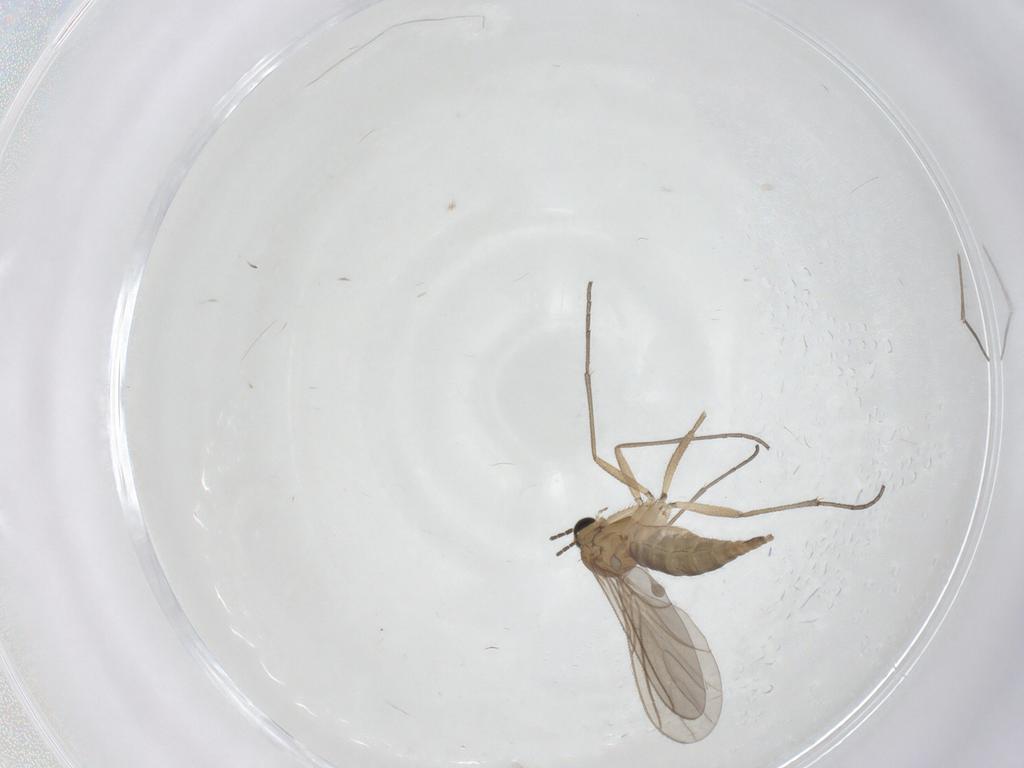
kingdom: Animalia
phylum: Arthropoda
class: Insecta
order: Diptera
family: Sciaridae
